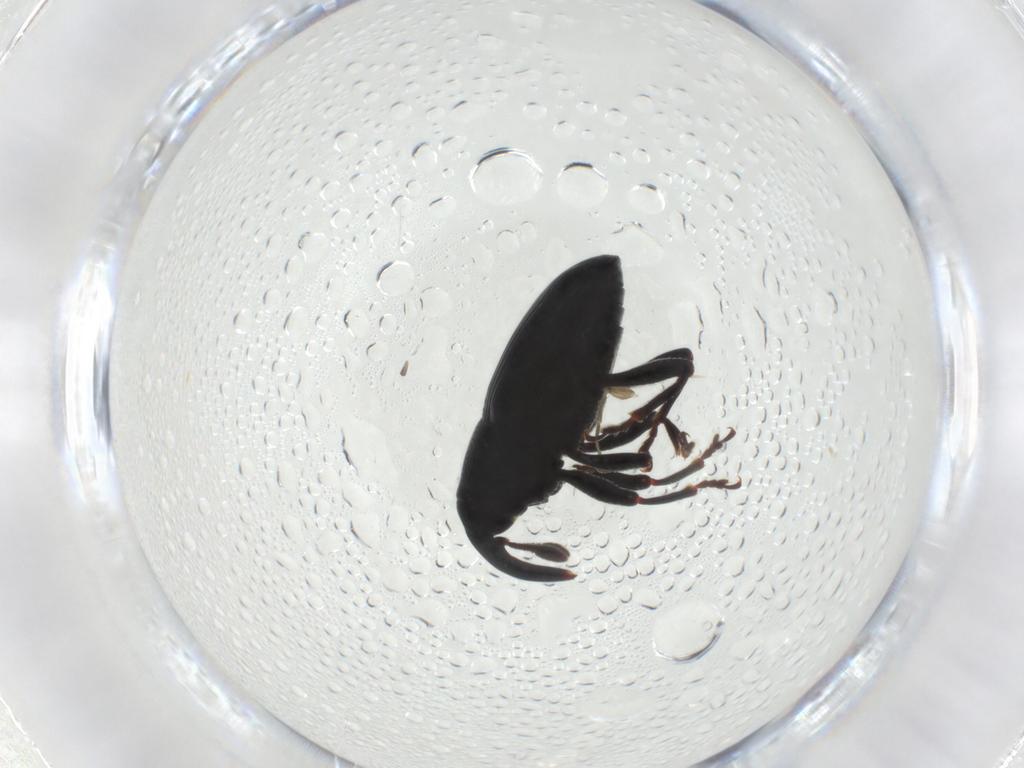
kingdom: Animalia
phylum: Arthropoda
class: Insecta
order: Coleoptera
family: Curculionidae
